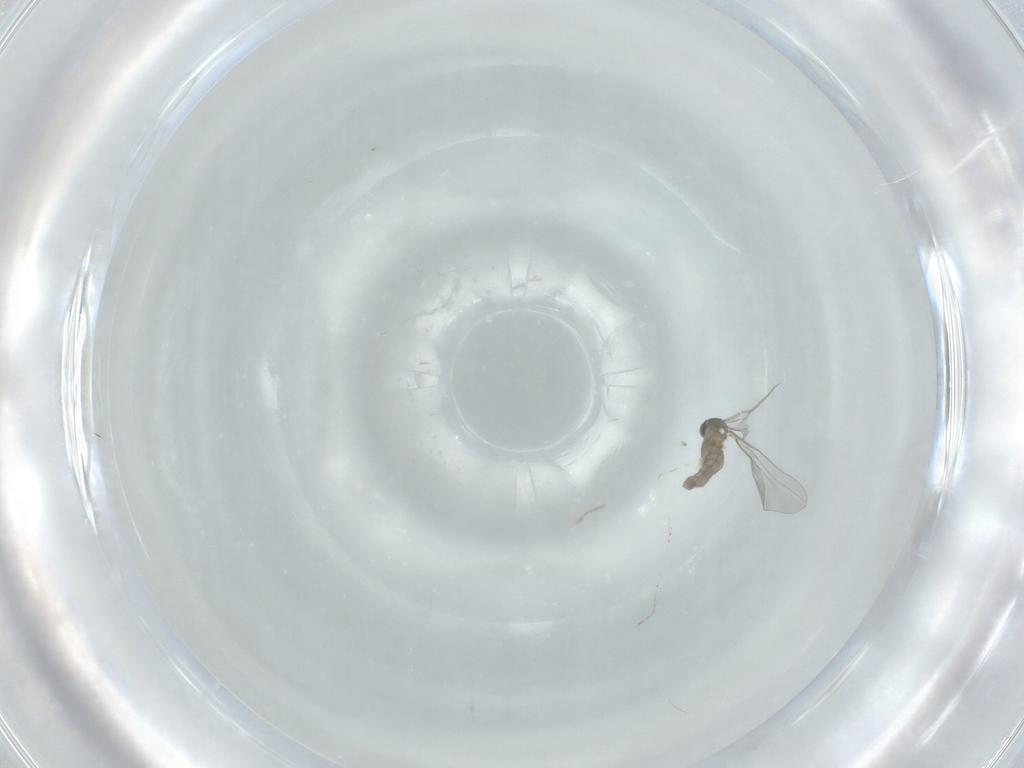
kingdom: Animalia
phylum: Arthropoda
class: Insecta
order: Diptera
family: Cecidomyiidae
